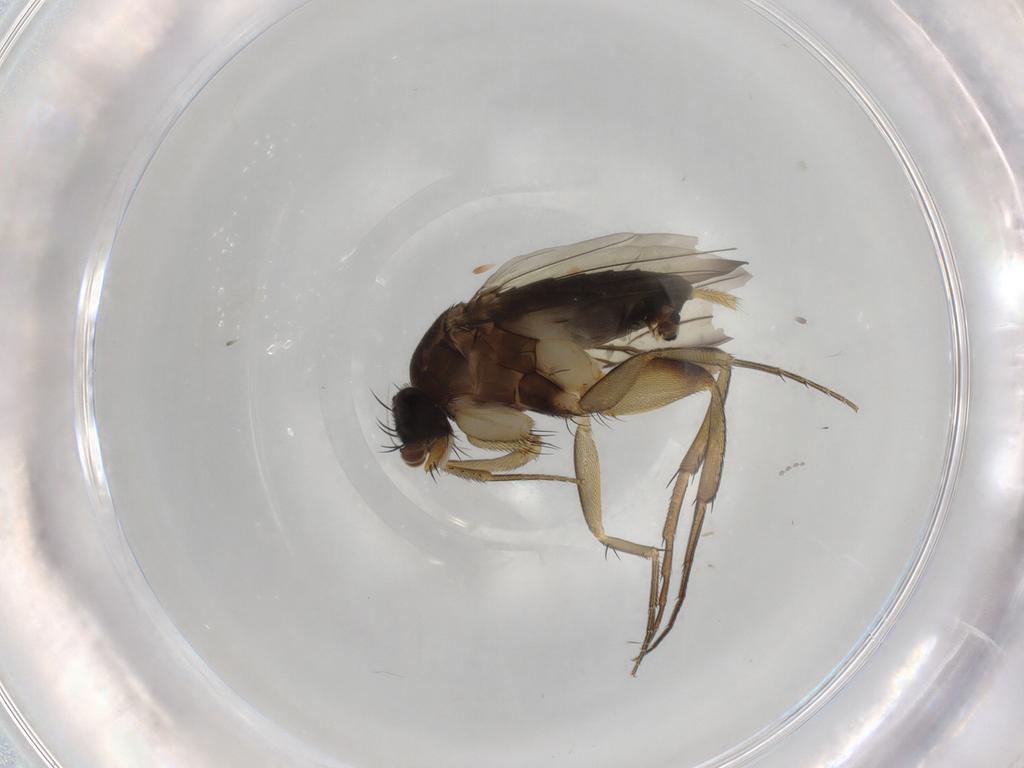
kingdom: Animalia
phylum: Arthropoda
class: Insecta
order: Diptera
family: Phoridae
